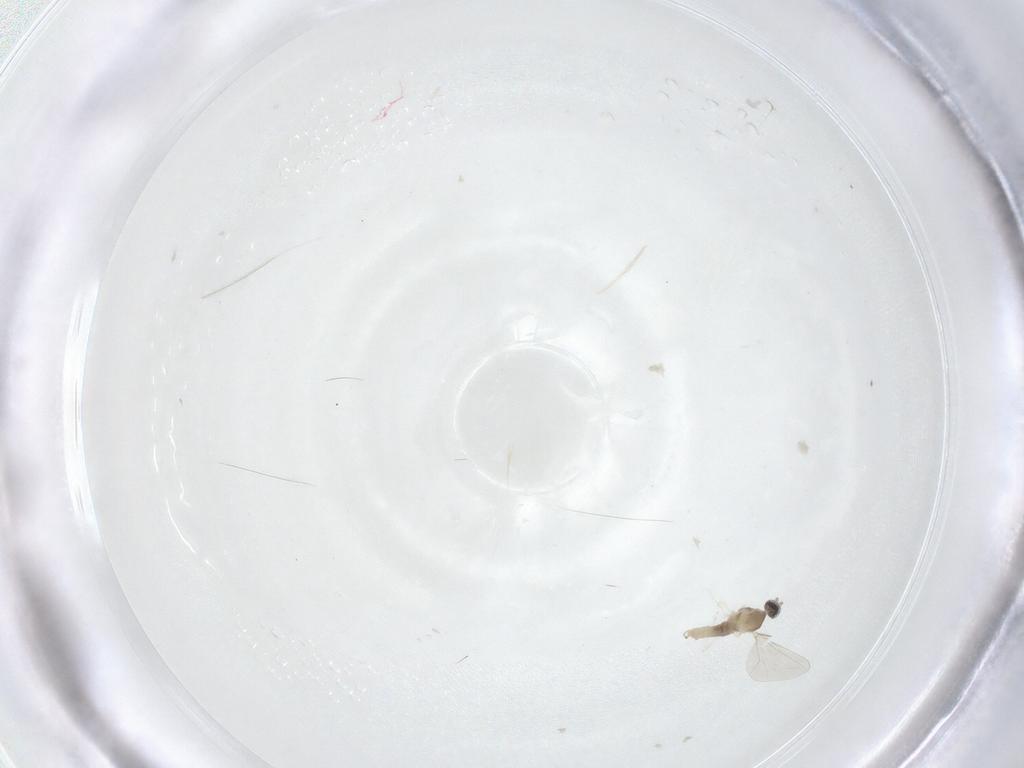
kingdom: Animalia
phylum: Arthropoda
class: Insecta
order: Diptera
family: Cecidomyiidae
